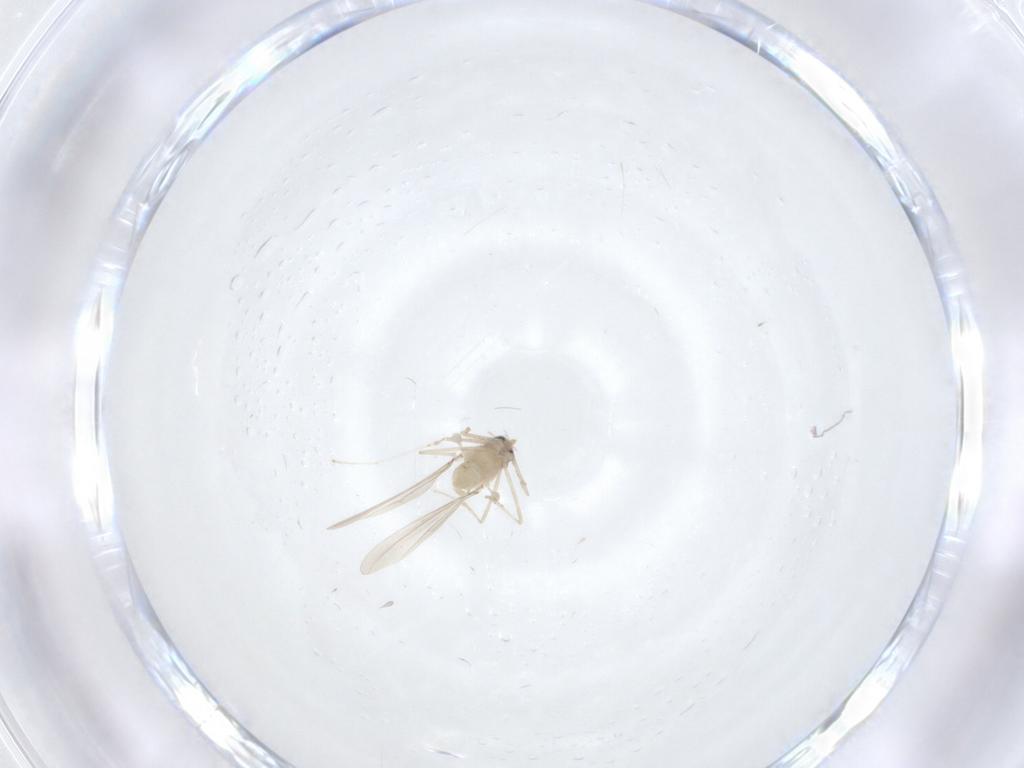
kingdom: Animalia
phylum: Arthropoda
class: Insecta
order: Diptera
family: Cecidomyiidae
